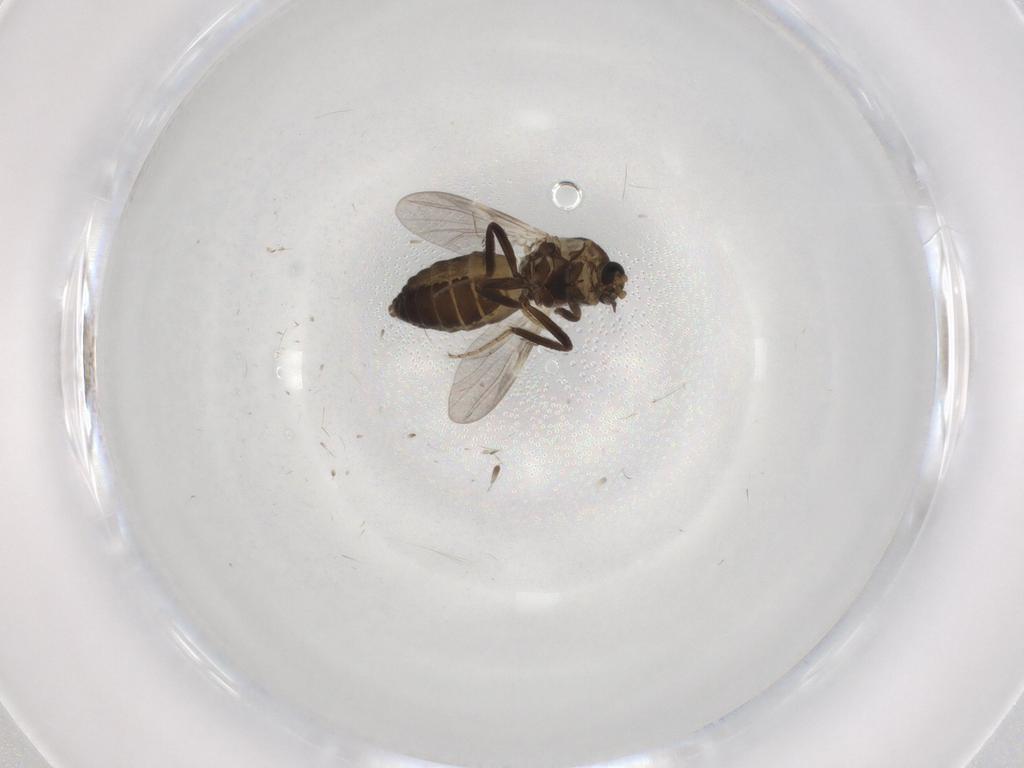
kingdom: Animalia
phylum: Arthropoda
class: Insecta
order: Diptera
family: Ceratopogonidae
